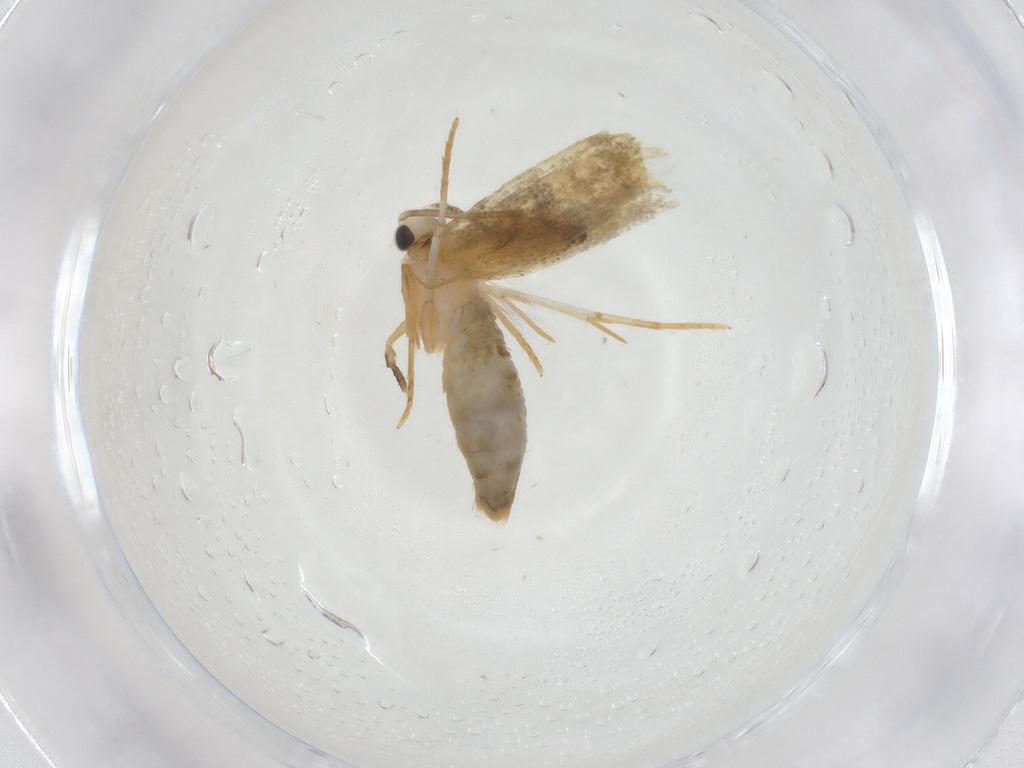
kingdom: Animalia
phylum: Arthropoda
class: Insecta
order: Lepidoptera
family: Tineidae
